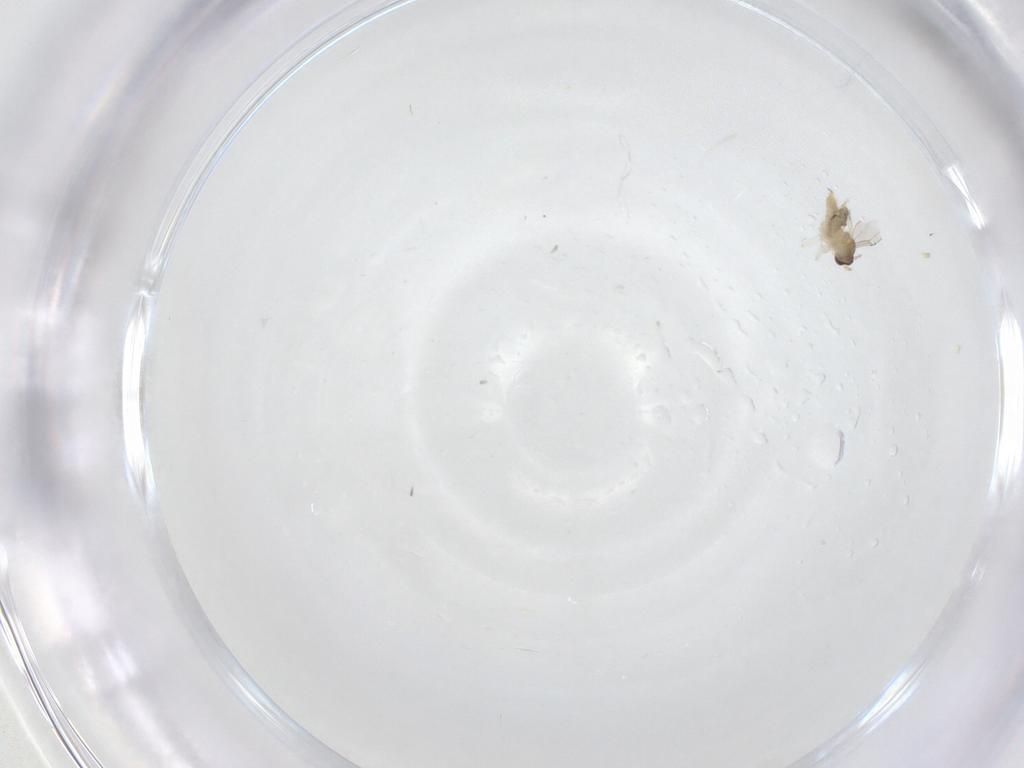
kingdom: Animalia
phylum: Arthropoda
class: Insecta
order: Diptera
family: Cecidomyiidae
